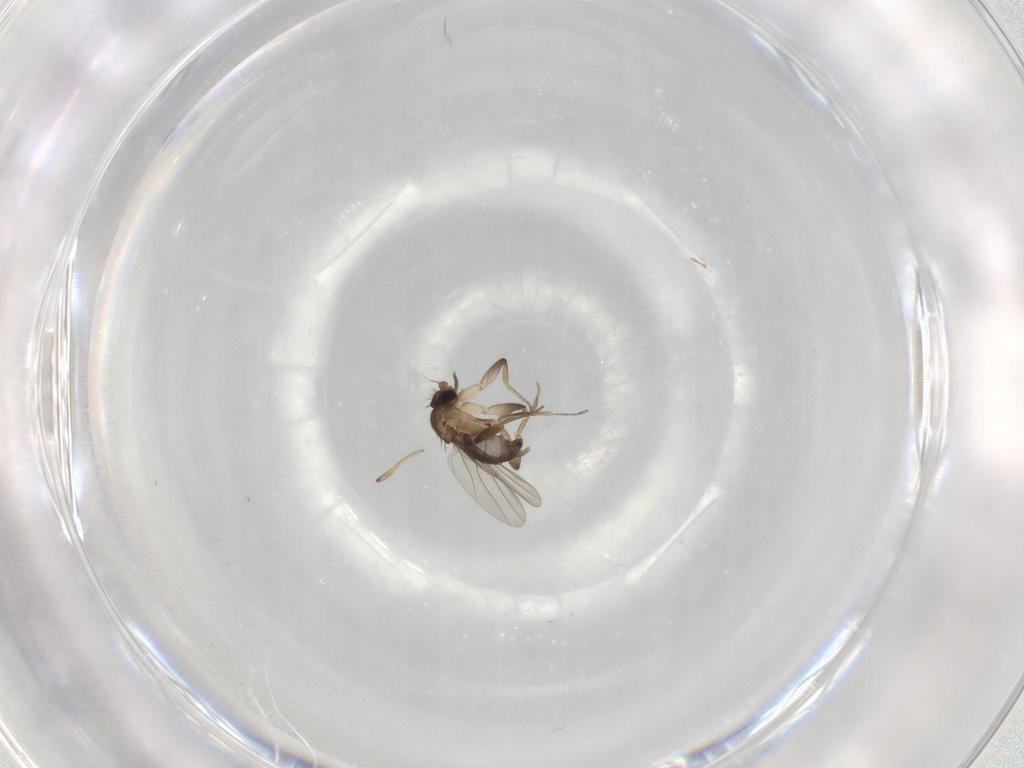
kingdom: Animalia
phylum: Arthropoda
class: Insecta
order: Diptera
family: Phoridae
